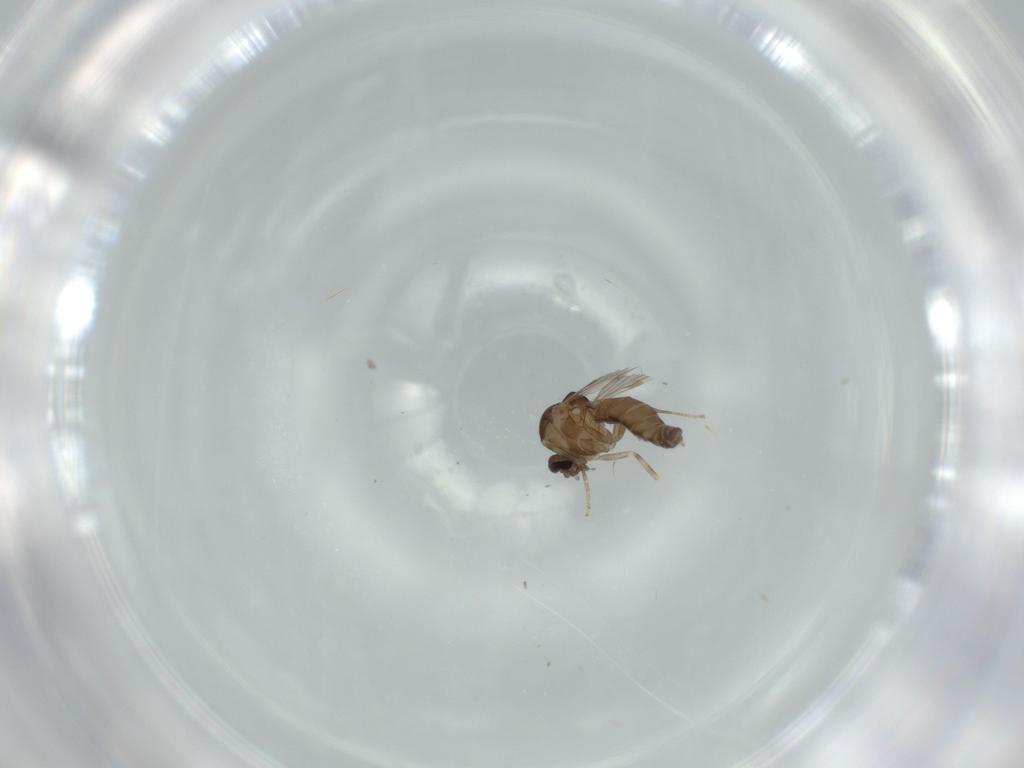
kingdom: Animalia
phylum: Arthropoda
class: Insecta
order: Diptera
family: Ceratopogonidae
